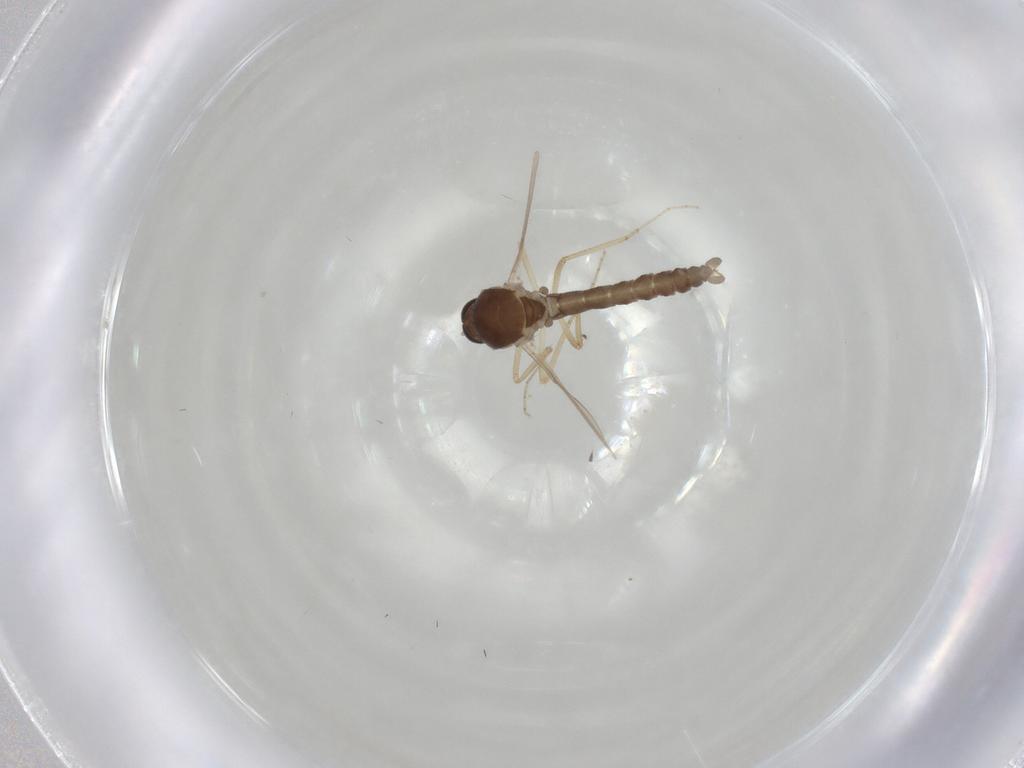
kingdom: Animalia
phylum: Arthropoda
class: Insecta
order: Diptera
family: Ceratopogonidae
